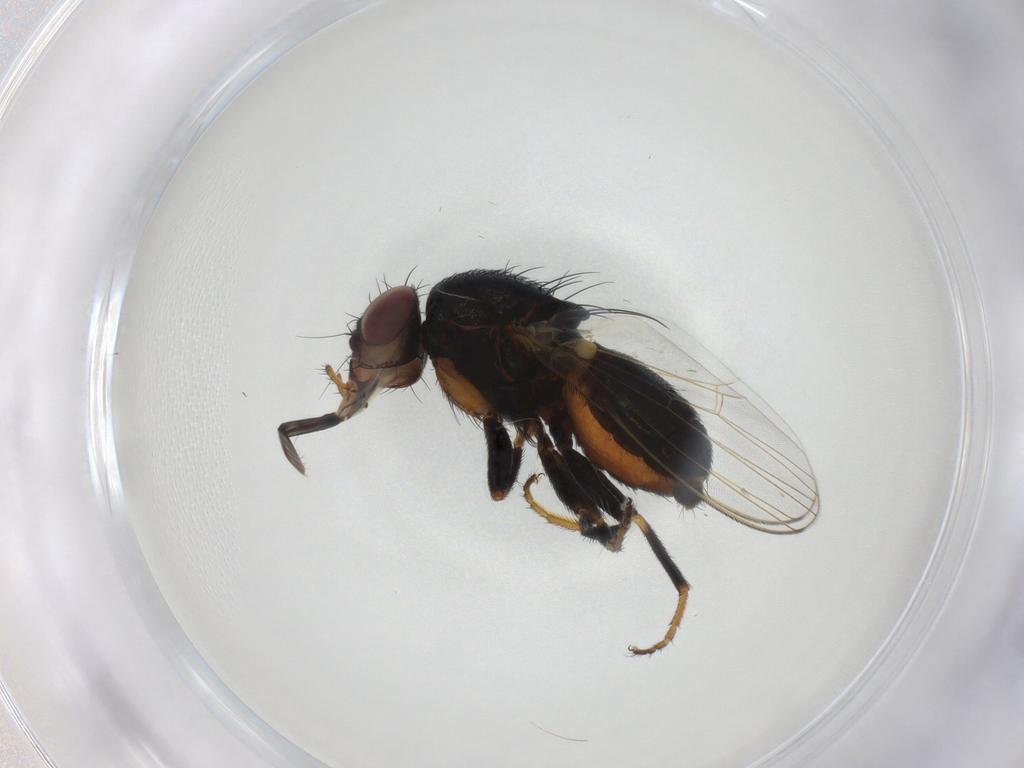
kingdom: Animalia
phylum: Arthropoda
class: Insecta
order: Diptera
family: Milichiidae
